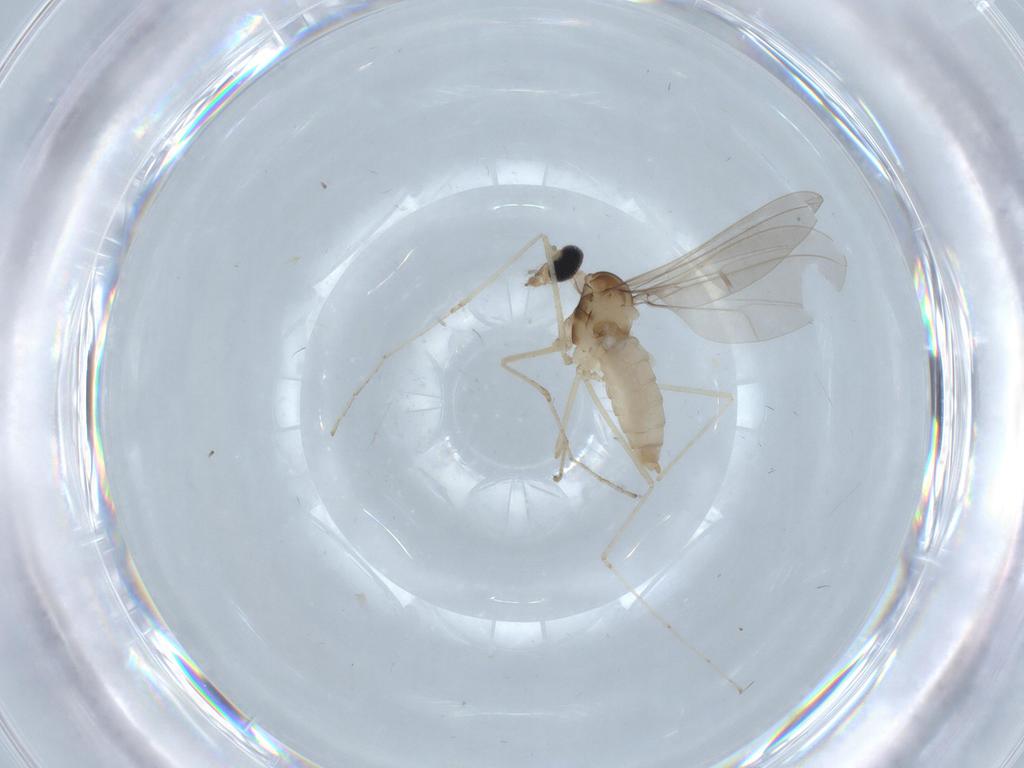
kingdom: Animalia
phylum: Arthropoda
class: Insecta
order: Diptera
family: Cecidomyiidae
